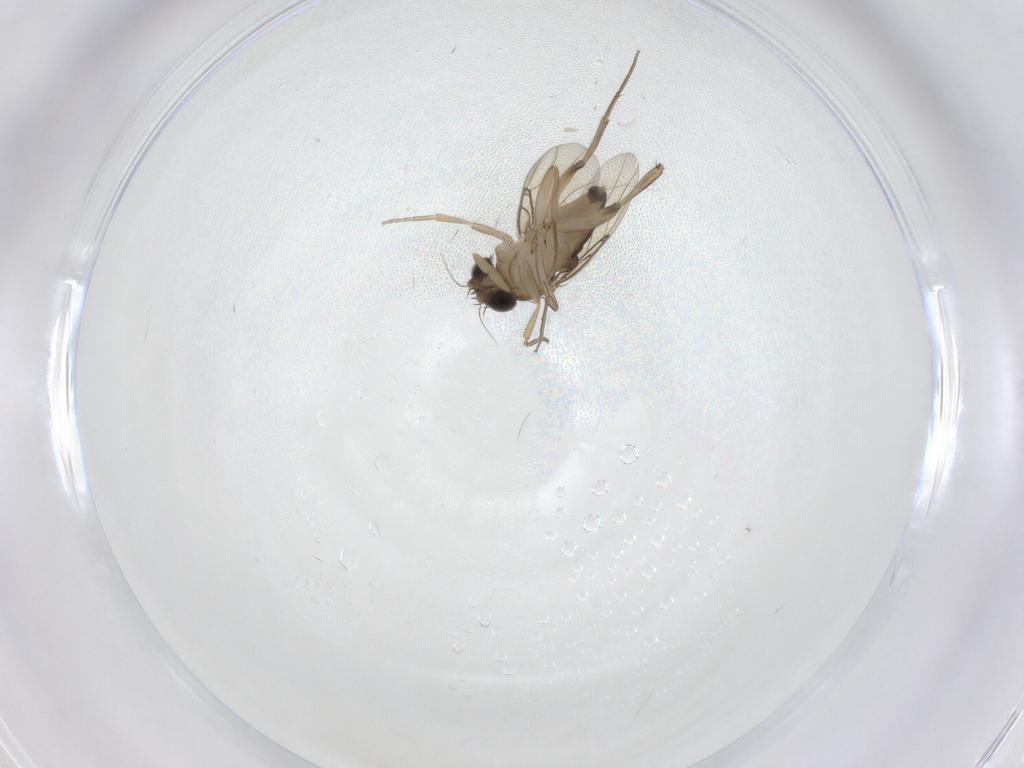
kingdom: Animalia
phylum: Arthropoda
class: Insecta
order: Diptera
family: Phoridae
